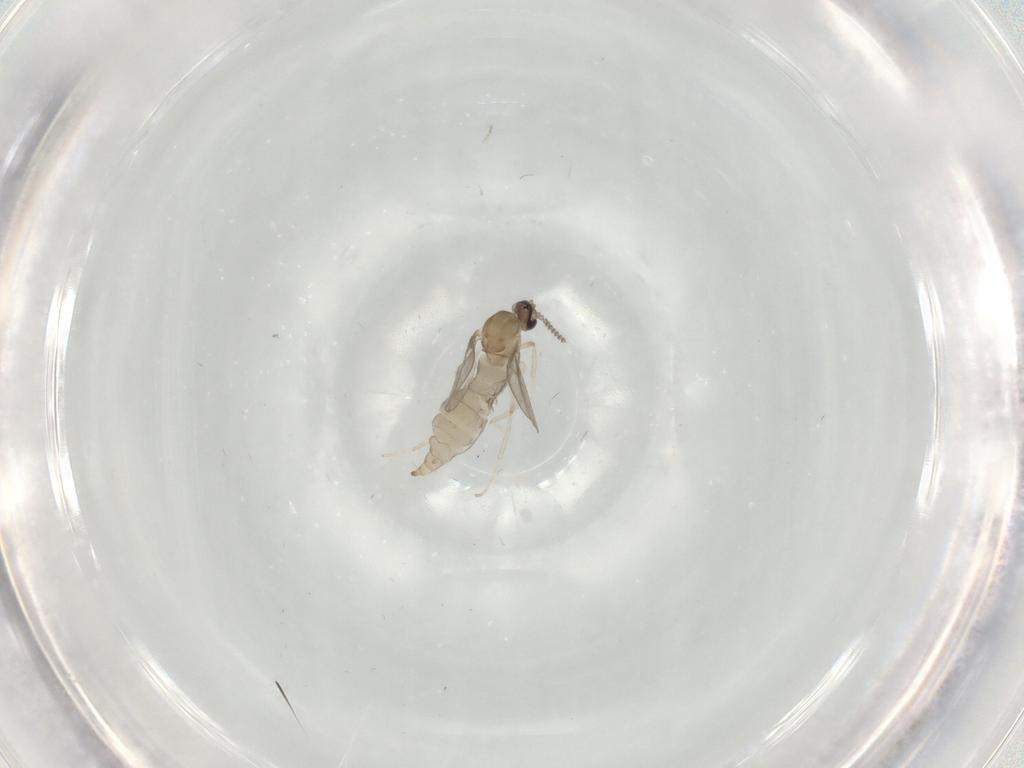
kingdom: Animalia
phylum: Arthropoda
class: Insecta
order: Diptera
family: Cecidomyiidae
